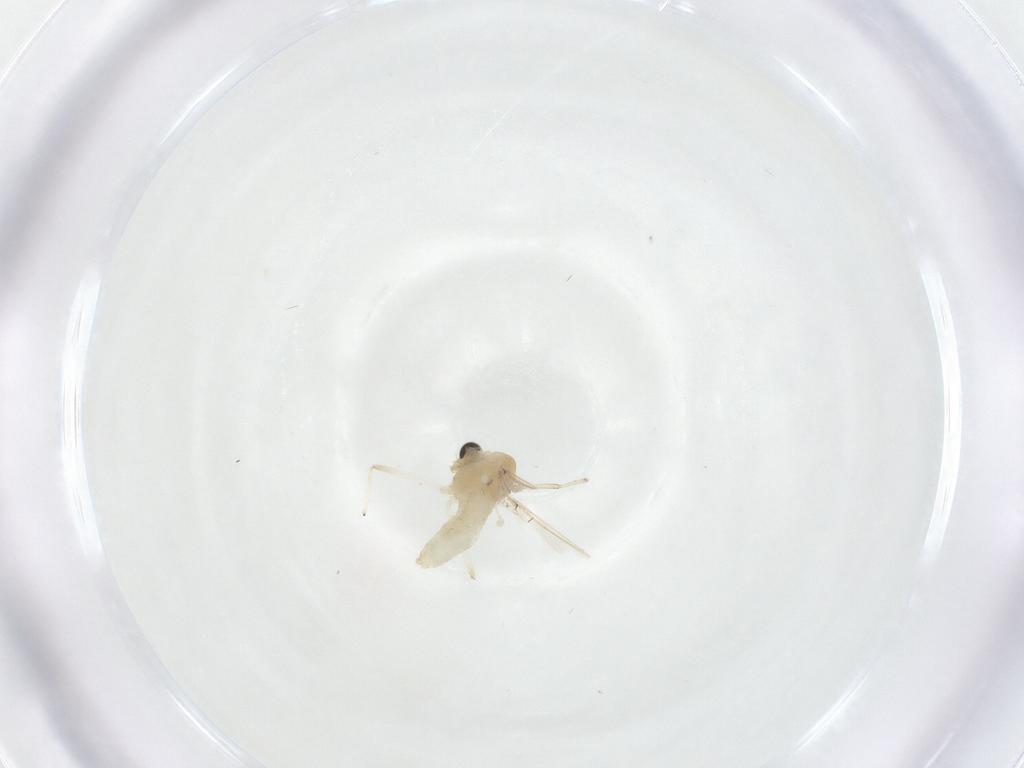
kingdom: Animalia
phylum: Arthropoda
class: Insecta
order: Diptera
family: Chironomidae
